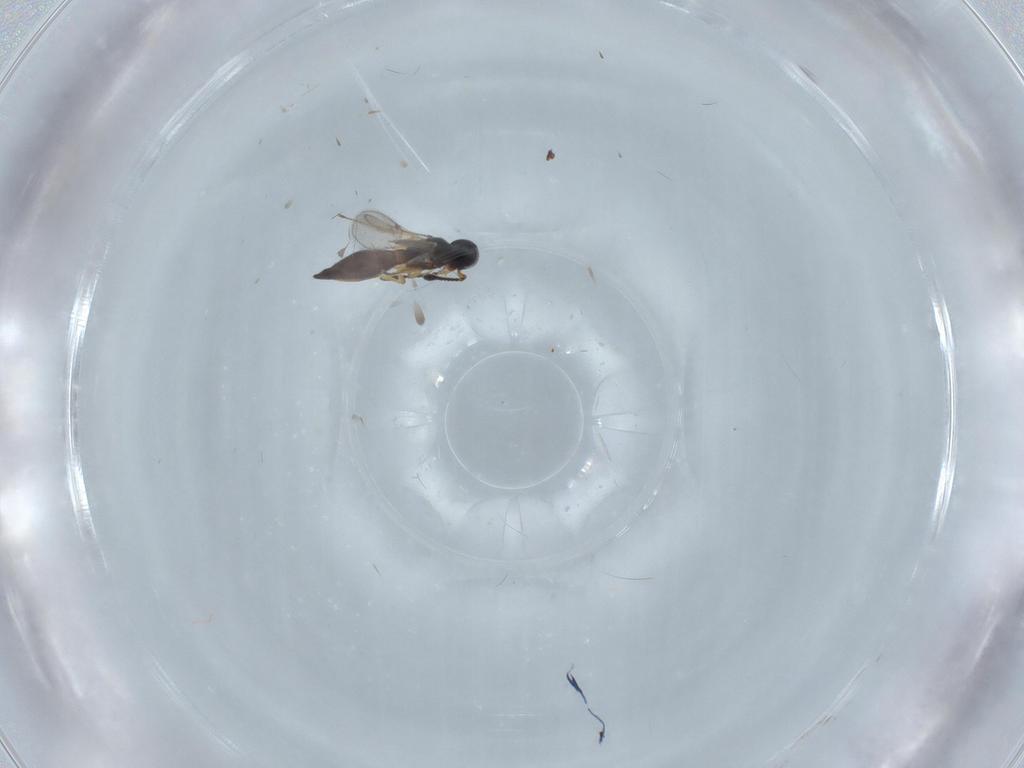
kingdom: Animalia
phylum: Arthropoda
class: Insecta
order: Hymenoptera
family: Scelionidae
